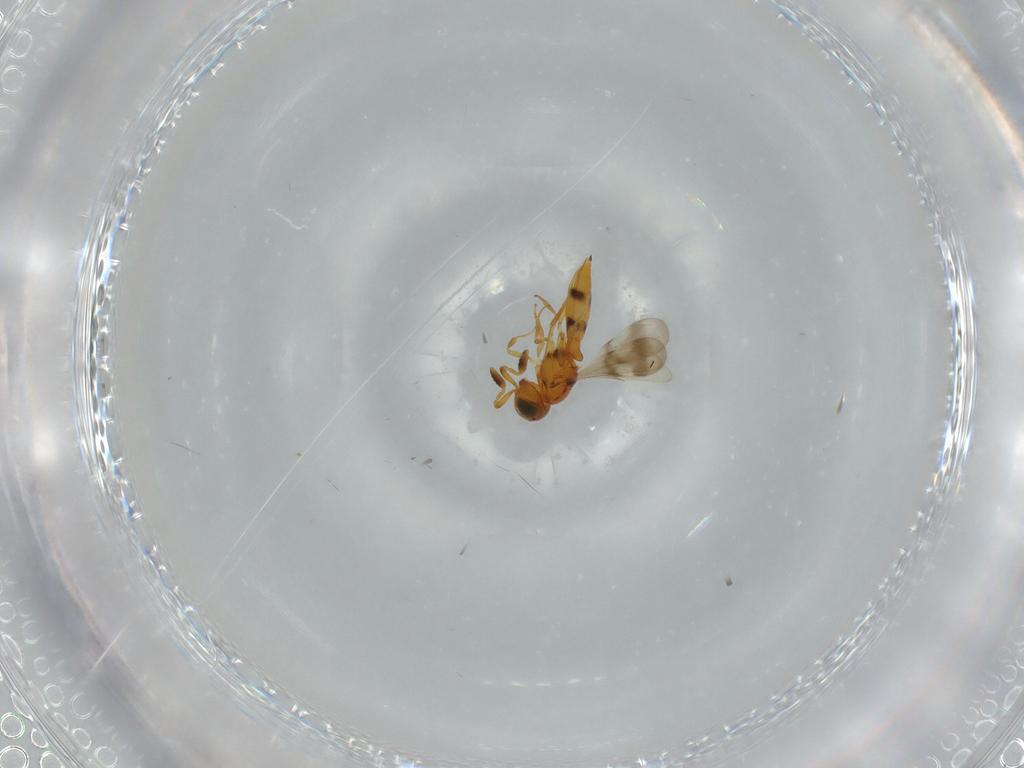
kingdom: Animalia
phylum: Arthropoda
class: Insecta
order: Hymenoptera
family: Scelionidae
